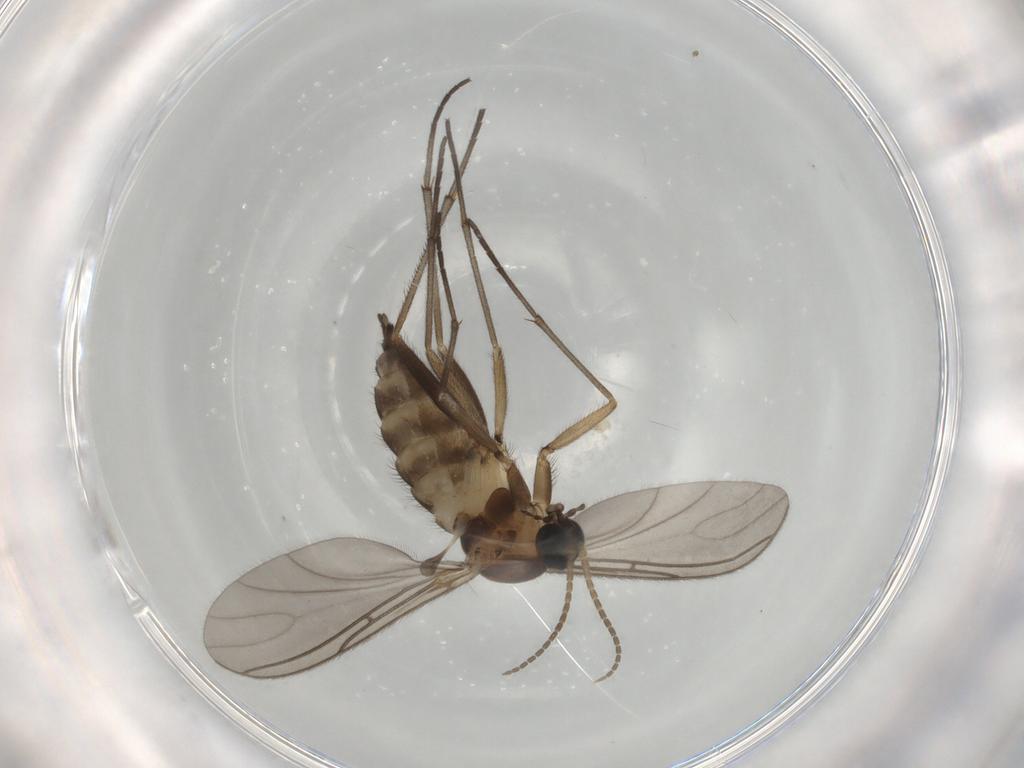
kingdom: Animalia
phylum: Arthropoda
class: Insecta
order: Diptera
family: Sciaridae
